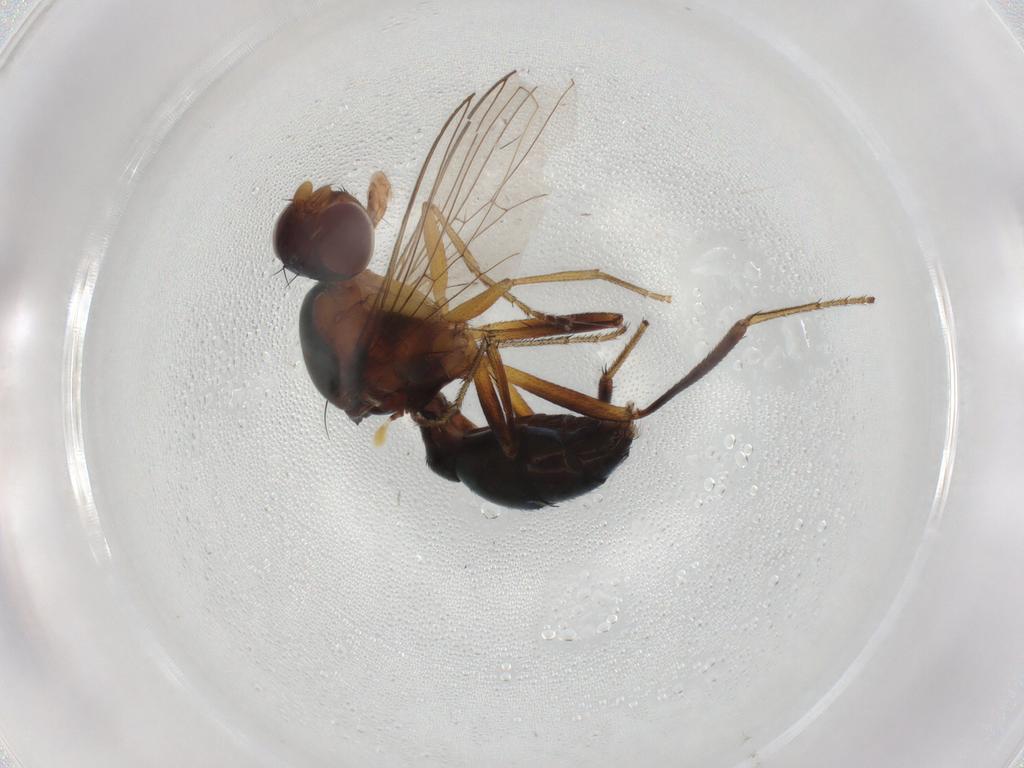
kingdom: Animalia
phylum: Arthropoda
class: Insecta
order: Diptera
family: Sepsidae
